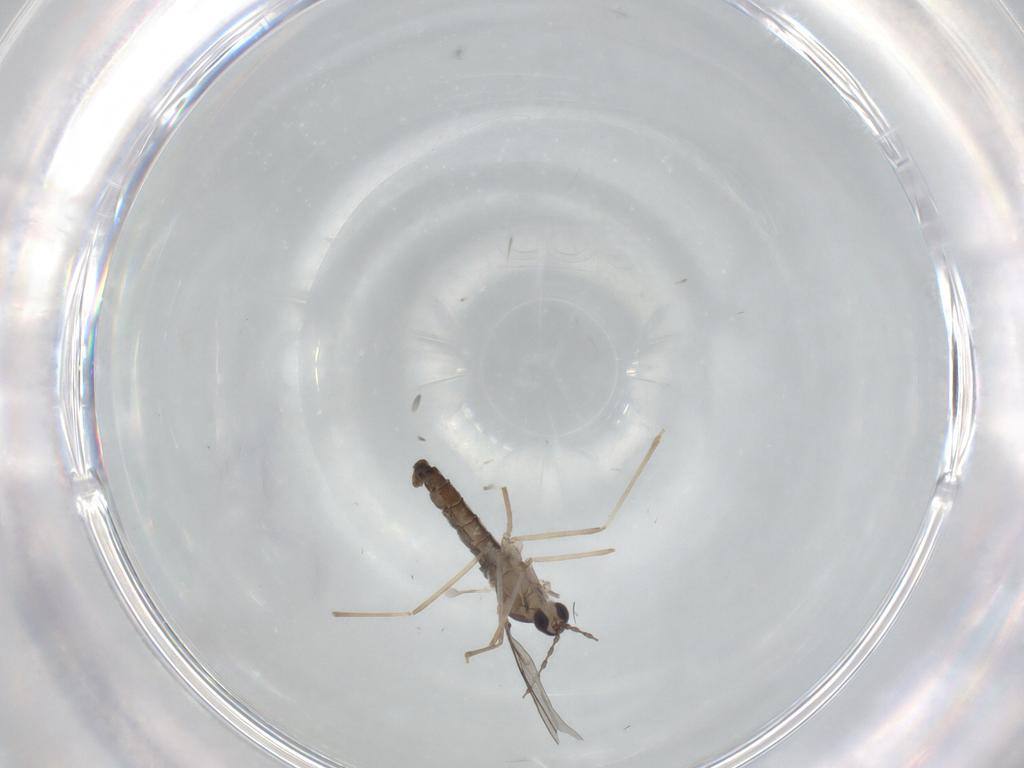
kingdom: Animalia
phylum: Arthropoda
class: Insecta
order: Diptera
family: Cecidomyiidae
